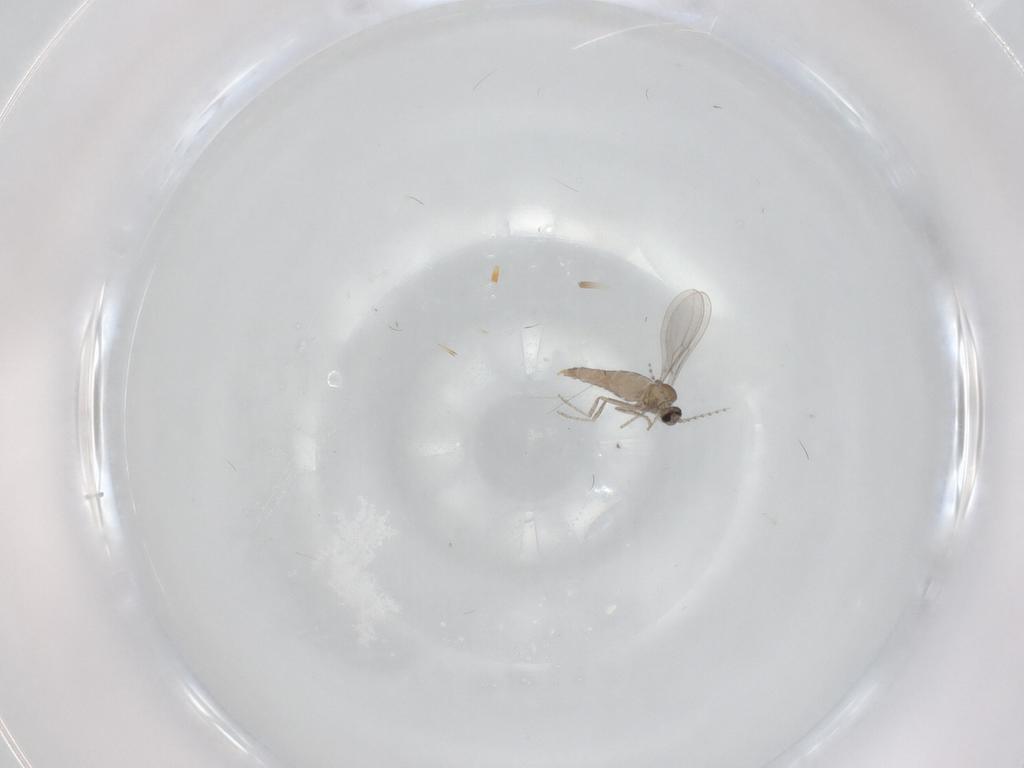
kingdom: Animalia
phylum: Arthropoda
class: Insecta
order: Diptera
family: Cecidomyiidae
